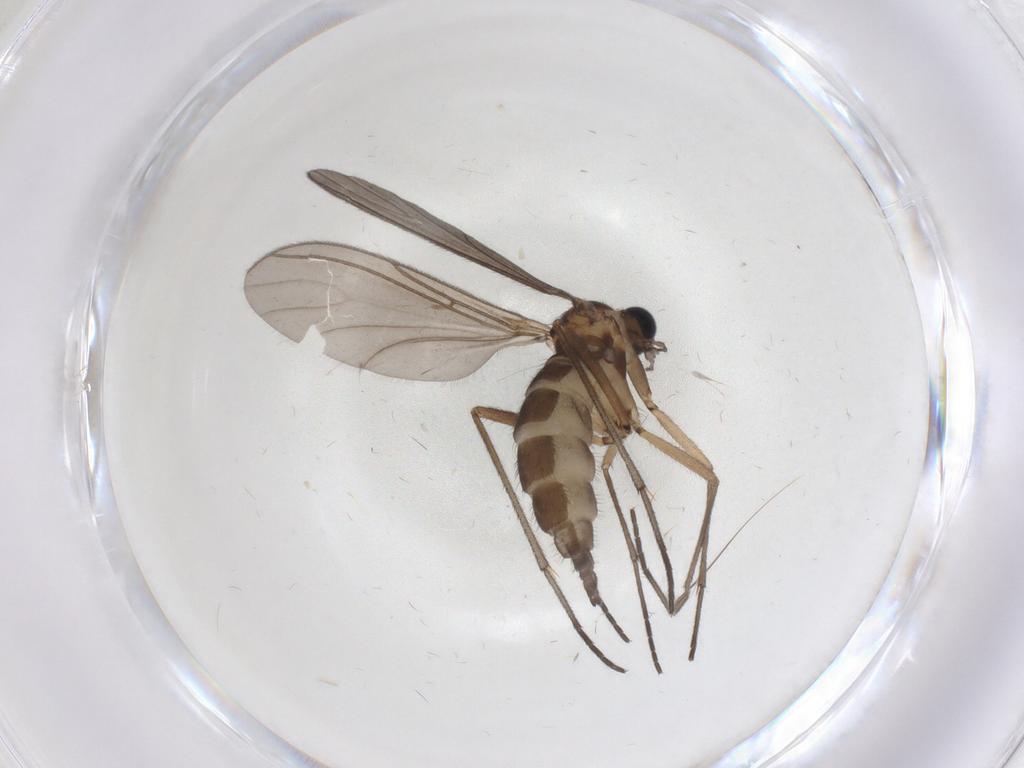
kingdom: Animalia
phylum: Arthropoda
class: Insecta
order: Diptera
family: Sciaridae
